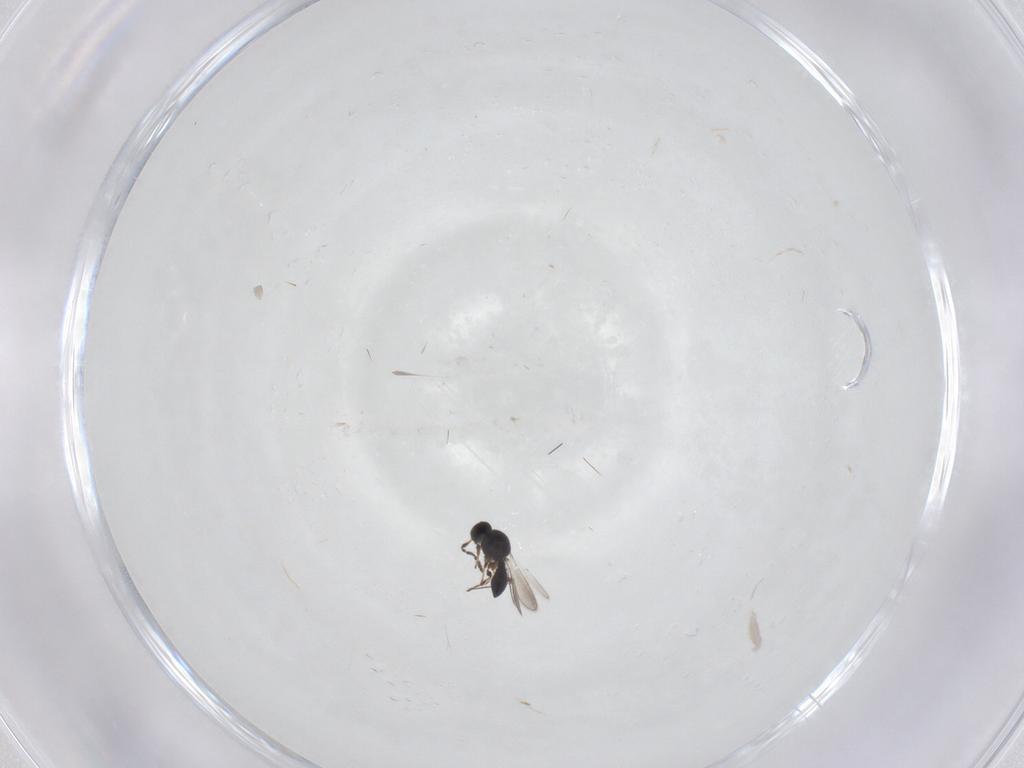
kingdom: Animalia
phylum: Arthropoda
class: Insecta
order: Hymenoptera
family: Platygastridae
